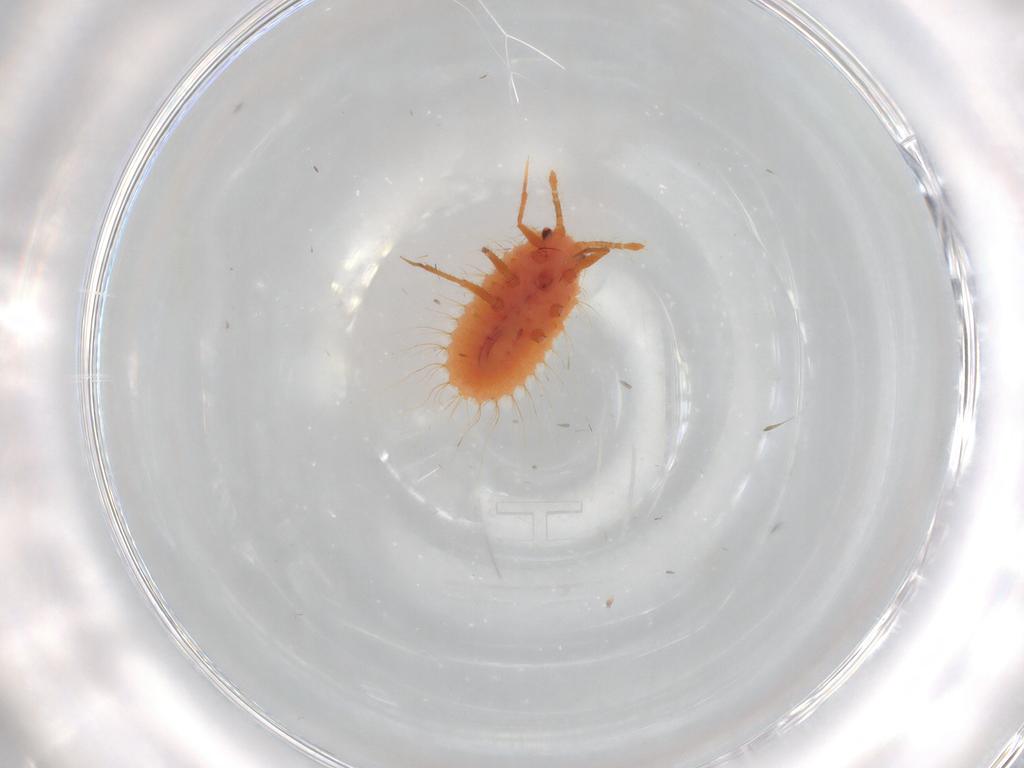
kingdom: Animalia
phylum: Arthropoda
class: Insecta
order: Hemiptera
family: Coccoidea_incertae_sedis
